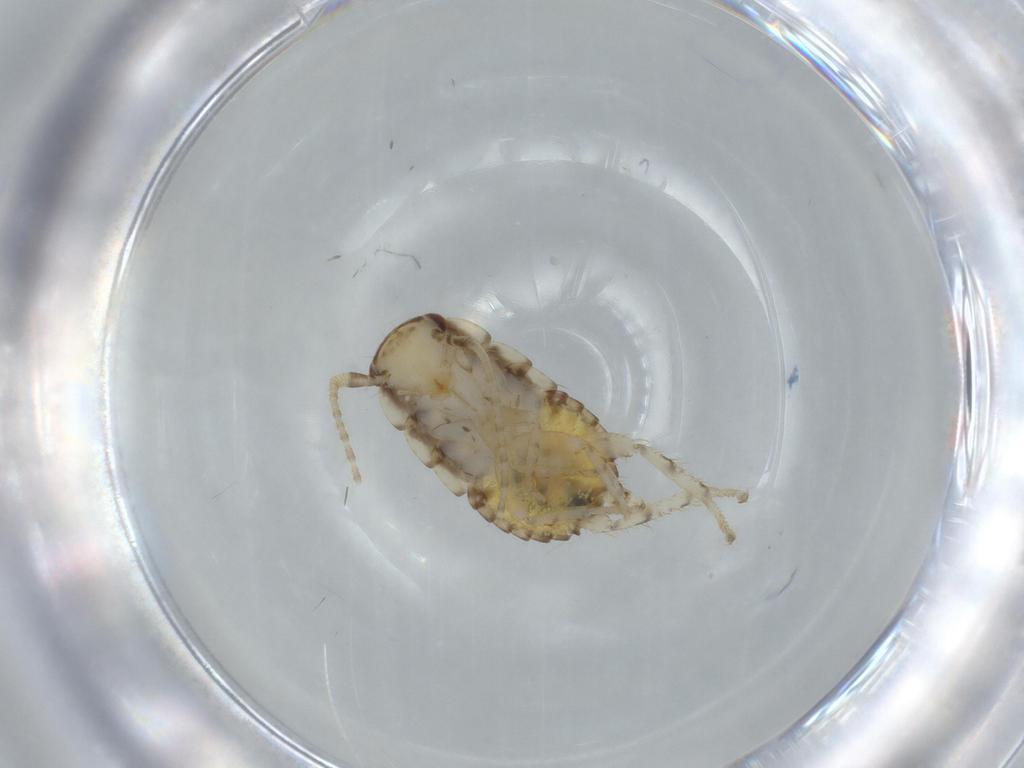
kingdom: Animalia
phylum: Arthropoda
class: Insecta
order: Blattodea
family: Ectobiidae
